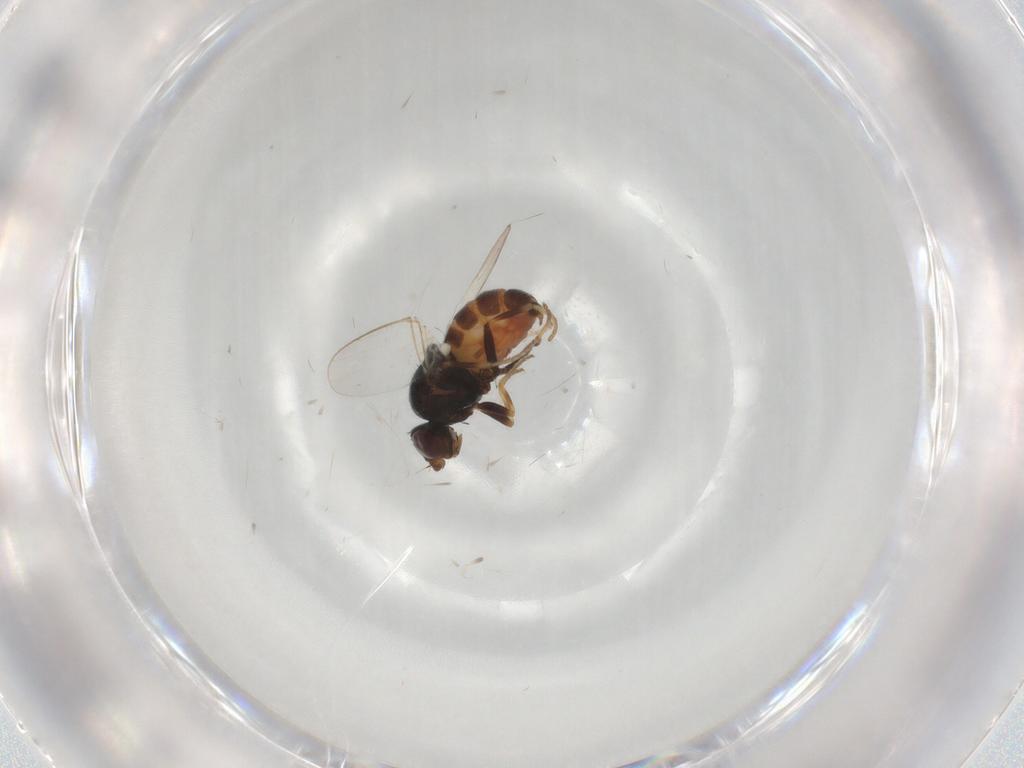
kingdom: Animalia
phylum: Arthropoda
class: Insecta
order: Diptera
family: Chloropidae
